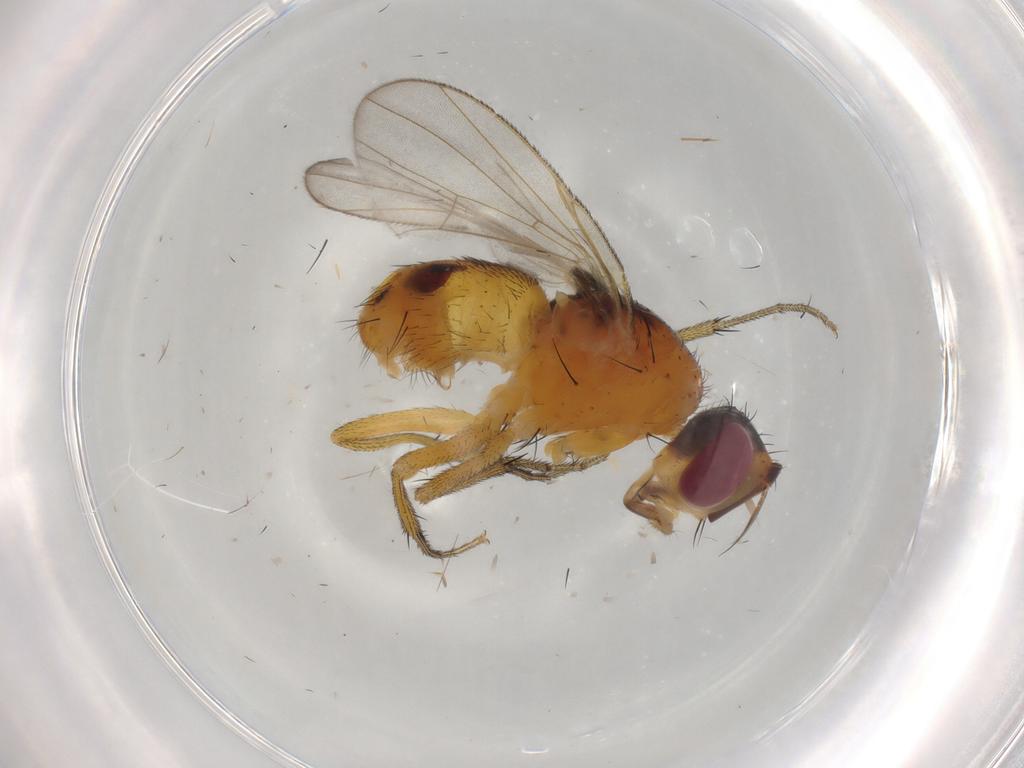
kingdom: Animalia
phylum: Arthropoda
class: Insecta
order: Diptera
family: Muscidae
